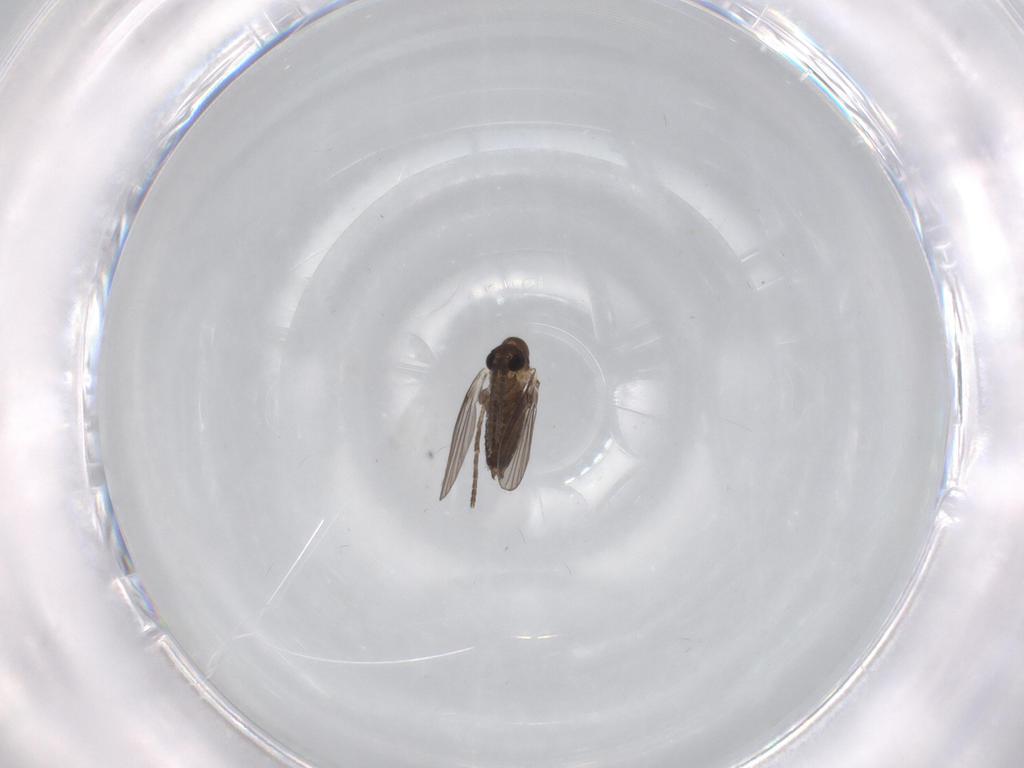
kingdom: Animalia
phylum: Arthropoda
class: Insecta
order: Diptera
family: Psychodidae
